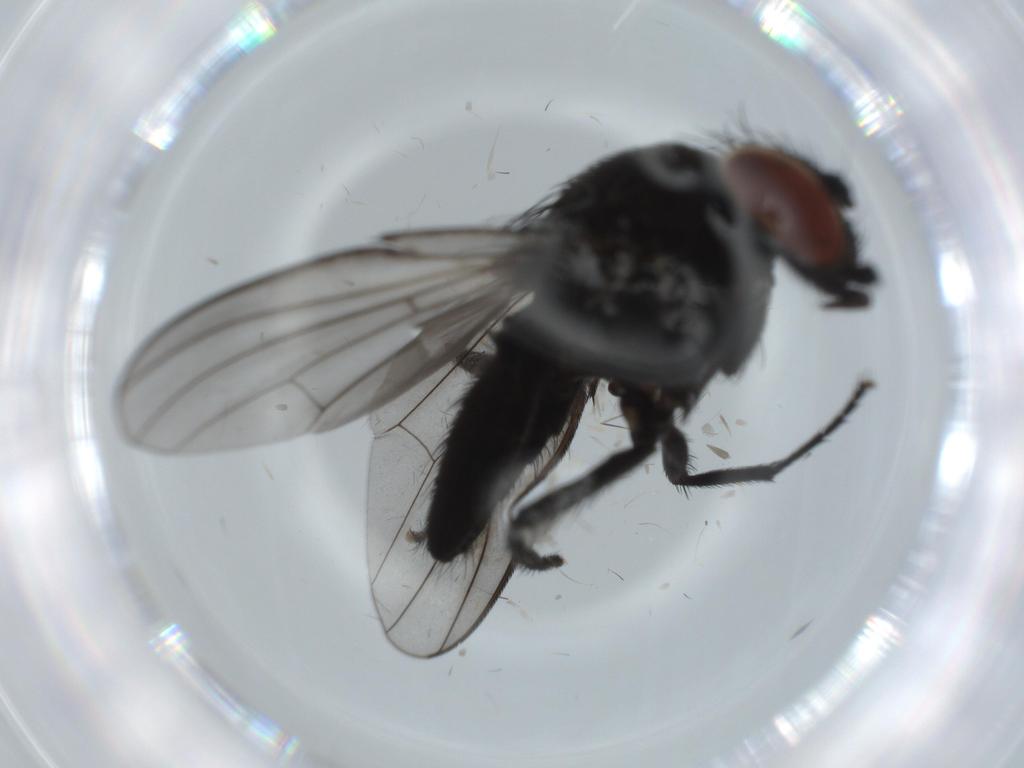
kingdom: Animalia
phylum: Arthropoda
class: Insecta
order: Diptera
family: Milichiidae
